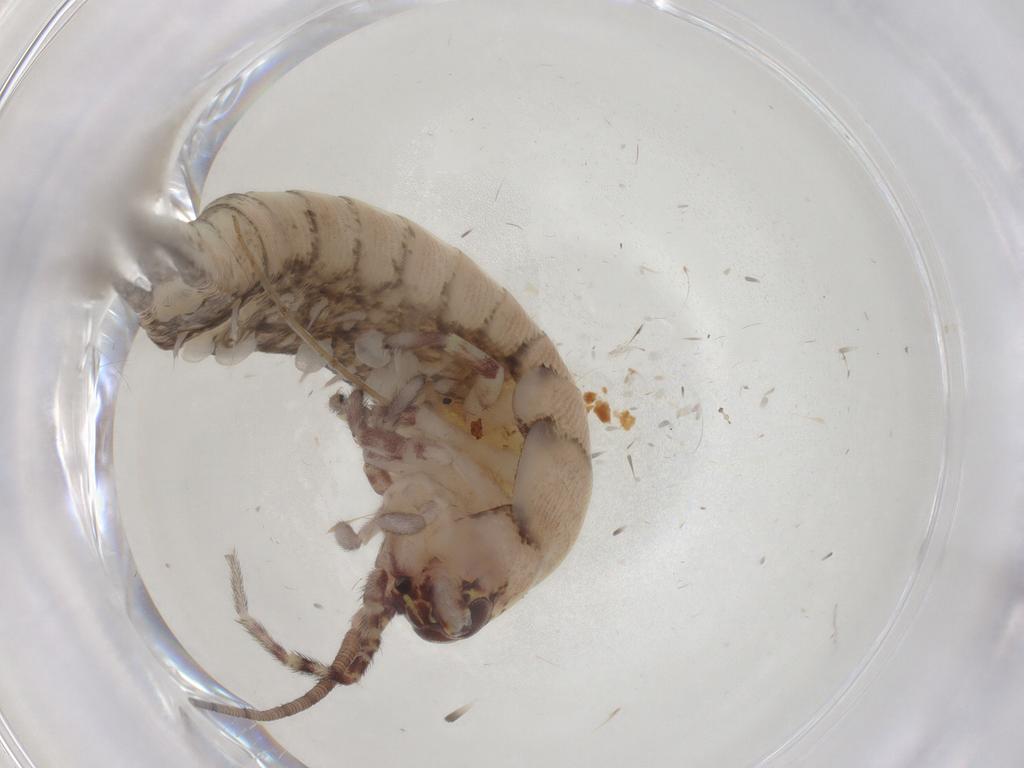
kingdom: Animalia
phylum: Arthropoda
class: Insecta
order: Archaeognatha
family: Machilidae
